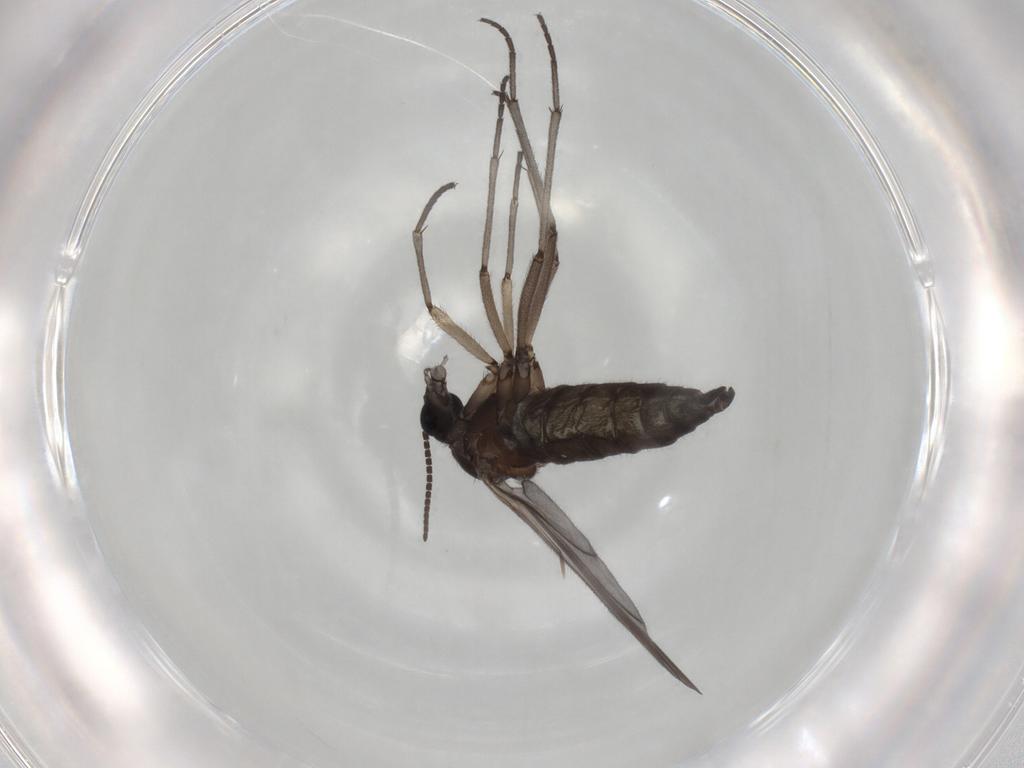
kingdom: Animalia
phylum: Arthropoda
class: Insecta
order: Diptera
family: Sciaridae
